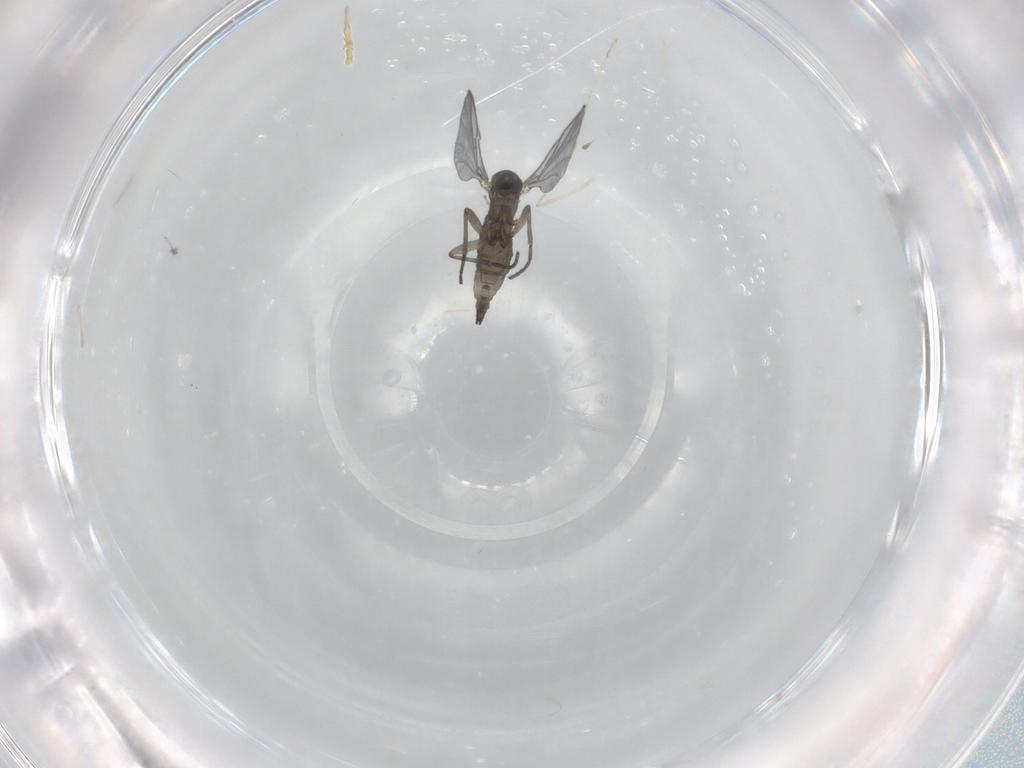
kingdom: Animalia
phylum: Arthropoda
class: Insecta
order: Diptera
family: Cecidomyiidae
